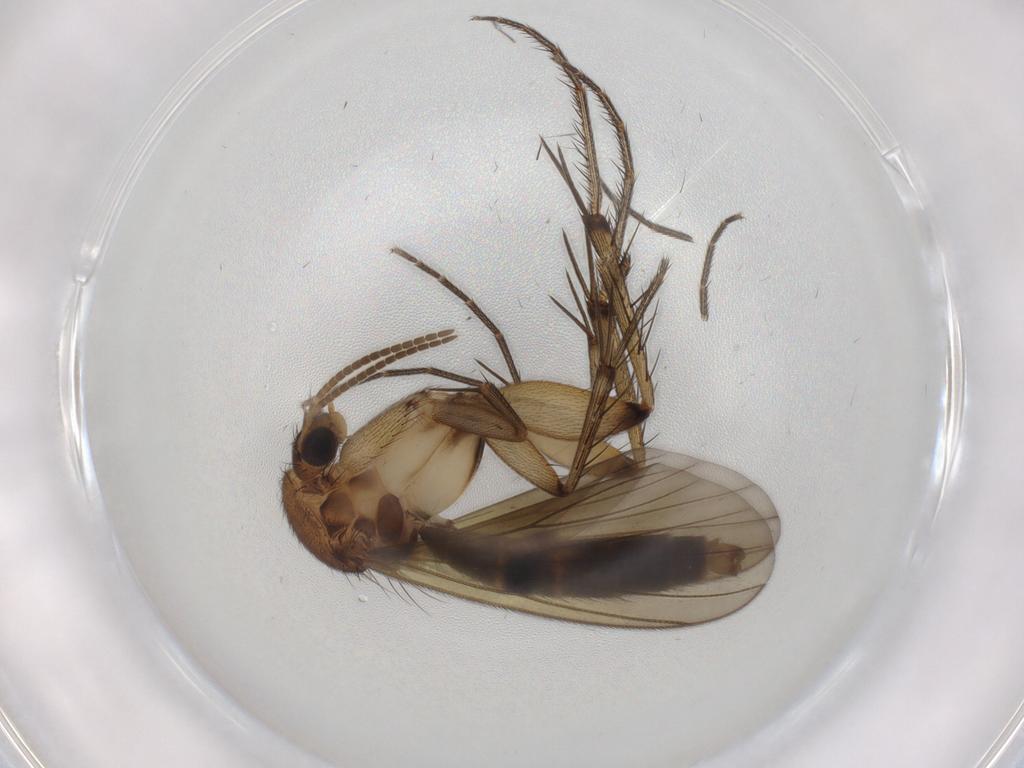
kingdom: Animalia
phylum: Arthropoda
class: Insecta
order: Diptera
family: Mycetophilidae
